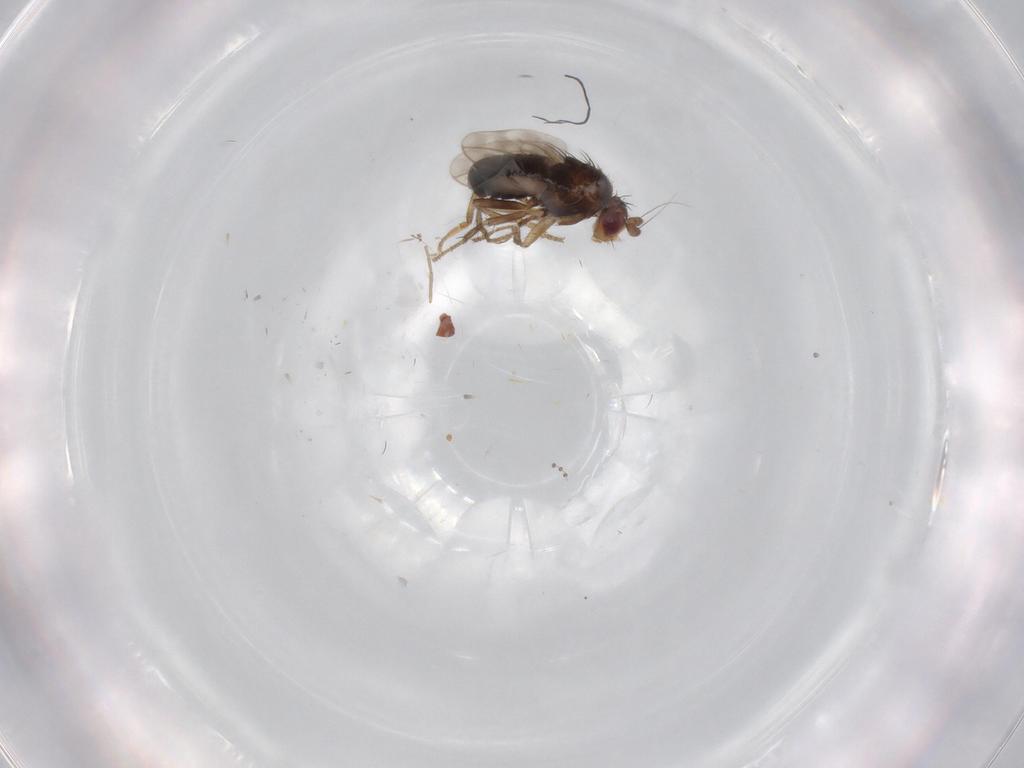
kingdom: Animalia
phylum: Arthropoda
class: Insecta
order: Diptera
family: Sphaeroceridae
